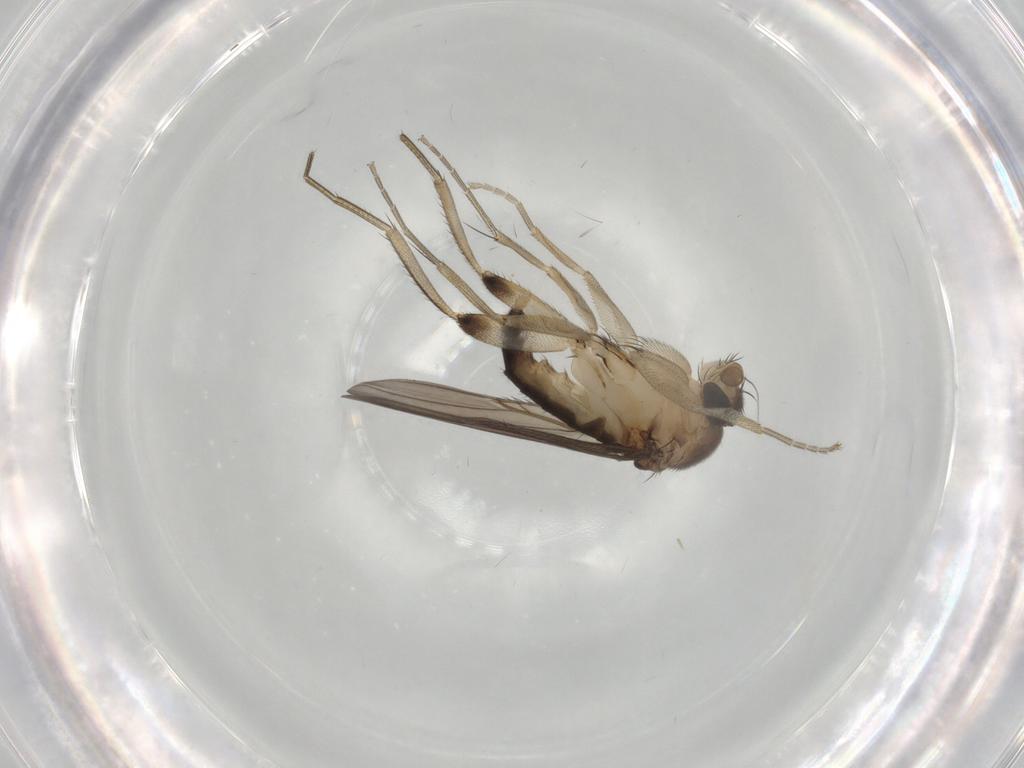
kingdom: Animalia
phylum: Arthropoda
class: Insecta
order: Diptera
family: Phoridae
